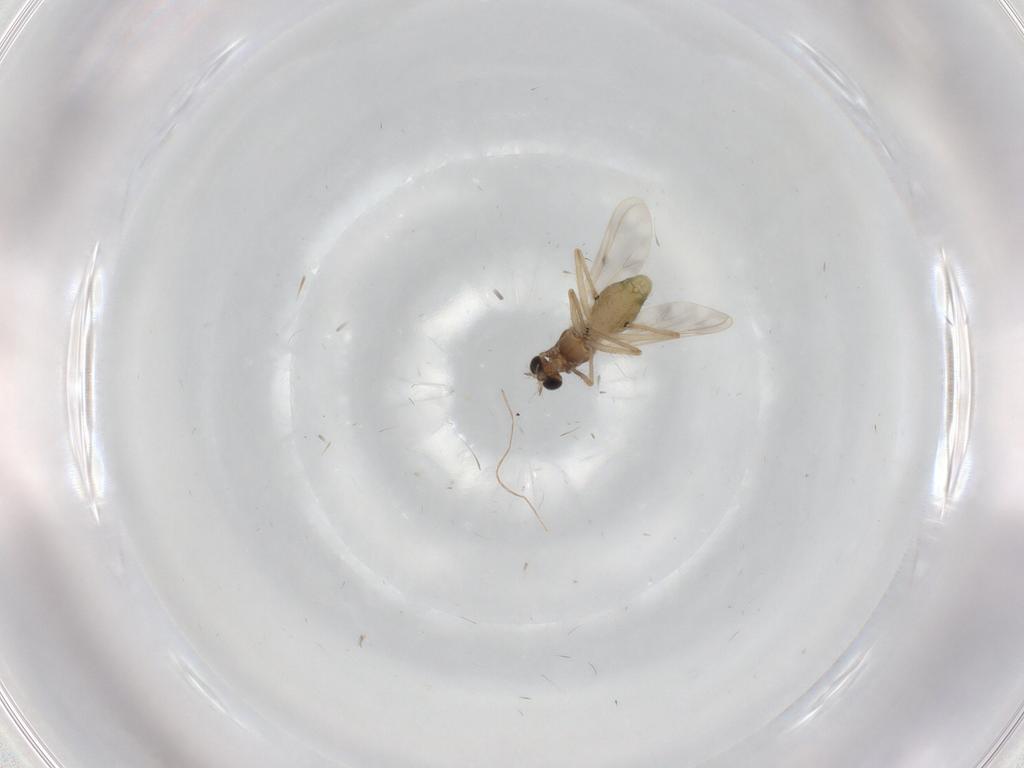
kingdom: Animalia
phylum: Arthropoda
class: Insecta
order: Diptera
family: Chironomidae
